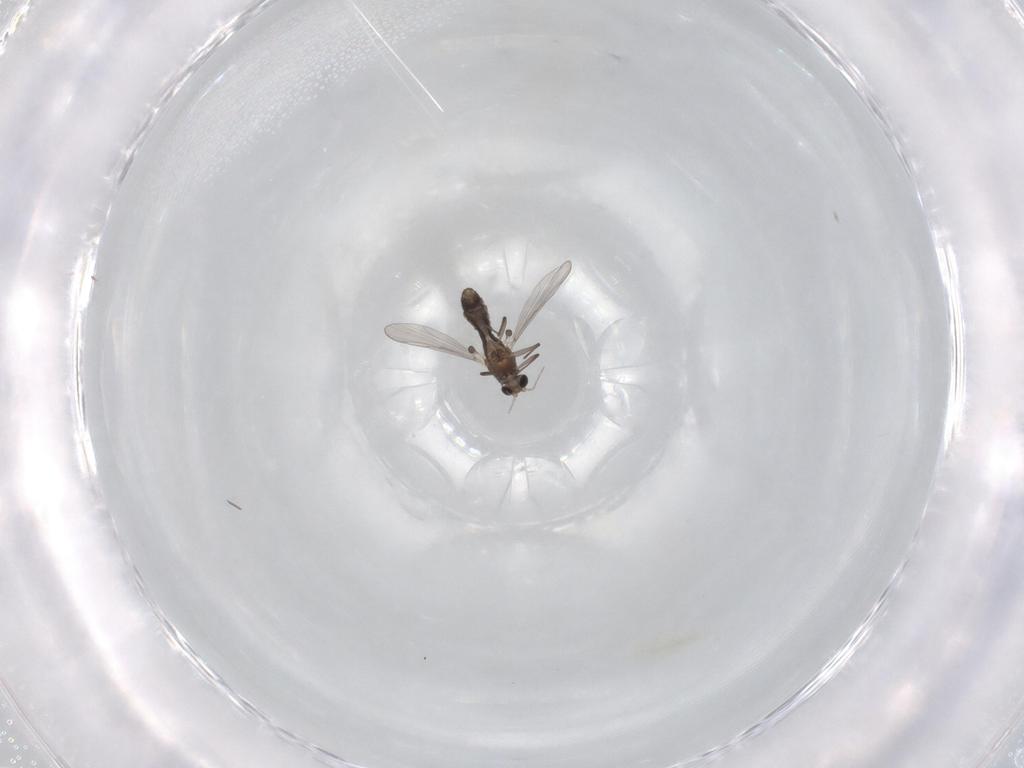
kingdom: Animalia
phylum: Arthropoda
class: Insecta
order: Diptera
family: Chironomidae
